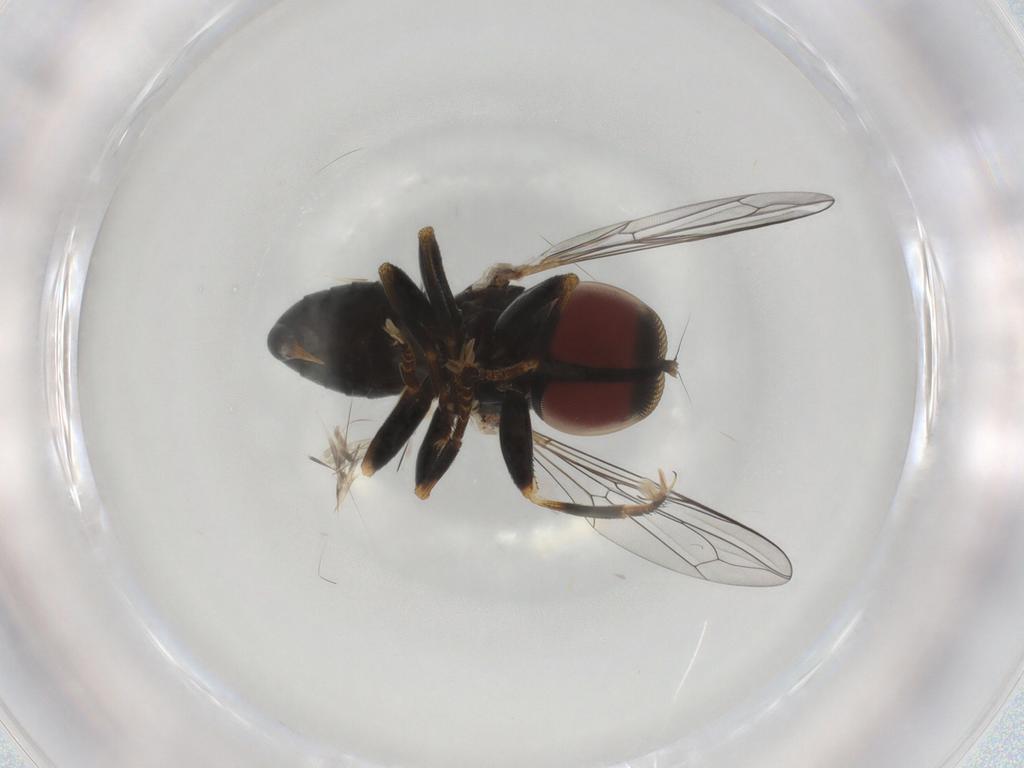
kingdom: Animalia
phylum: Arthropoda
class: Insecta
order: Diptera
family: Pipunculidae
